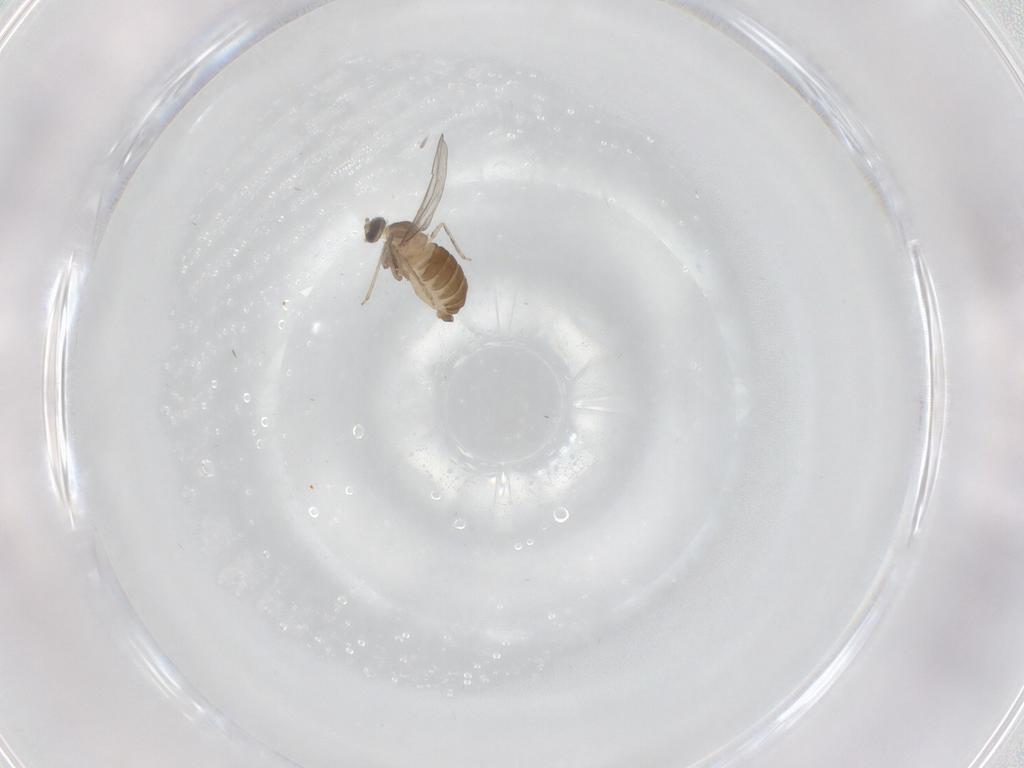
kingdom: Animalia
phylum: Arthropoda
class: Insecta
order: Diptera
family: Cecidomyiidae
